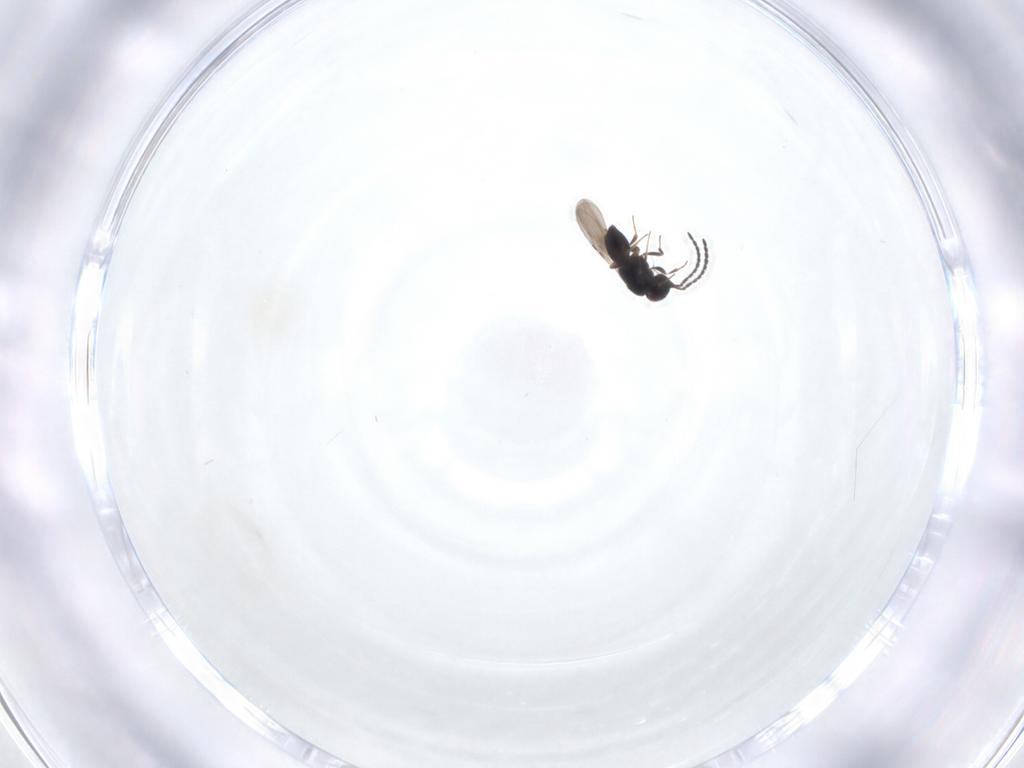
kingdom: Animalia
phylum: Arthropoda
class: Insecta
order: Hymenoptera
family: Ceraphronidae
